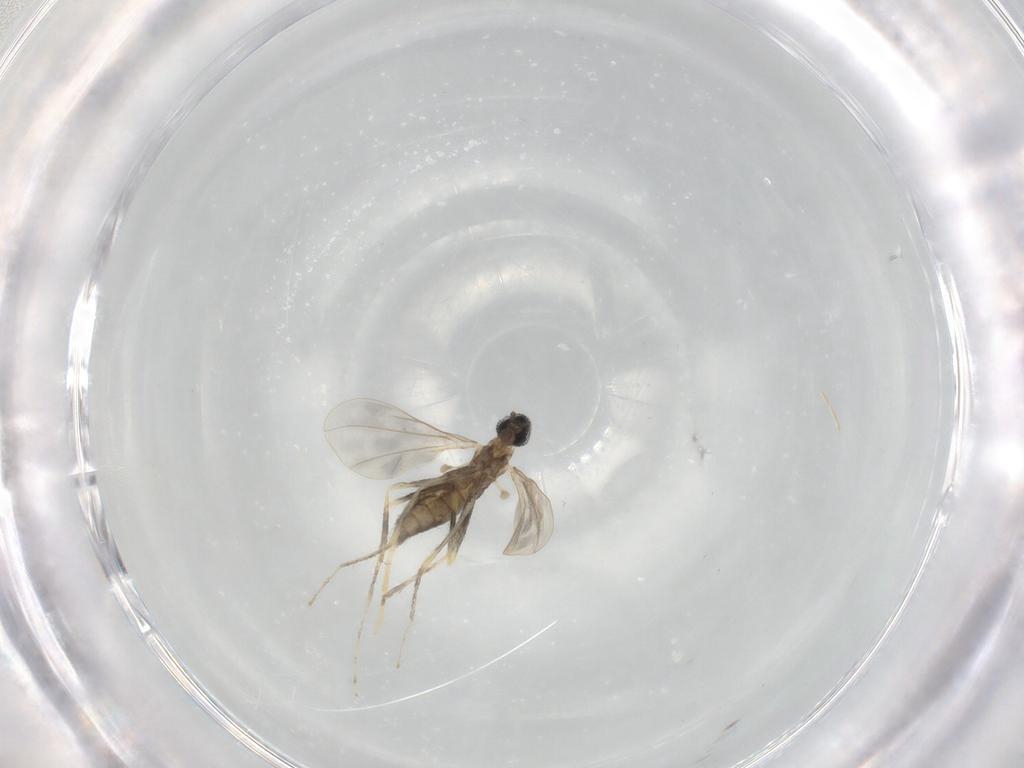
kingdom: Animalia
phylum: Arthropoda
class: Insecta
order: Diptera
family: Cecidomyiidae
